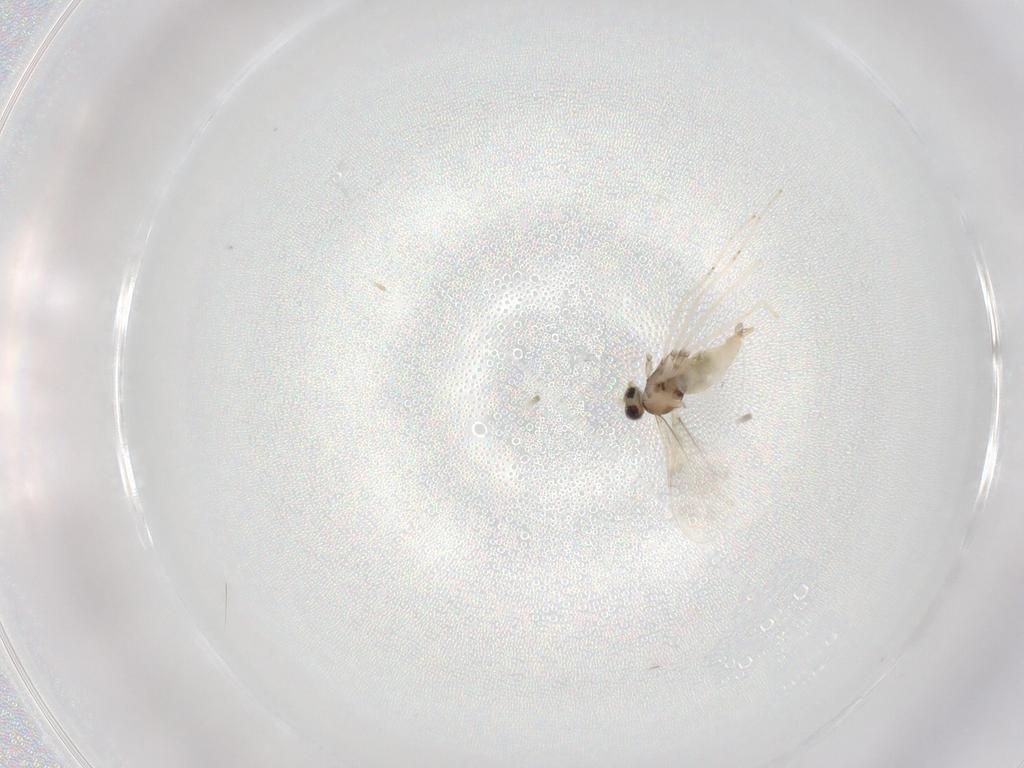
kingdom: Animalia
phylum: Arthropoda
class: Insecta
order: Diptera
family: Cecidomyiidae
